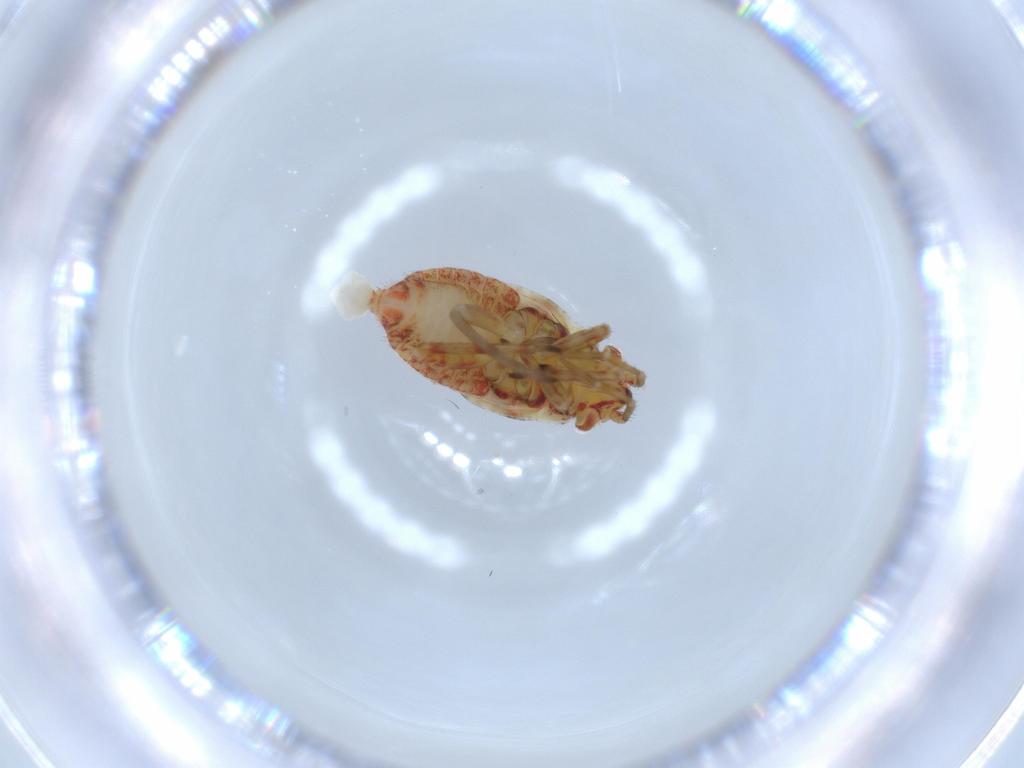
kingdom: Animalia
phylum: Arthropoda
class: Insecta
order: Hemiptera
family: Miridae
